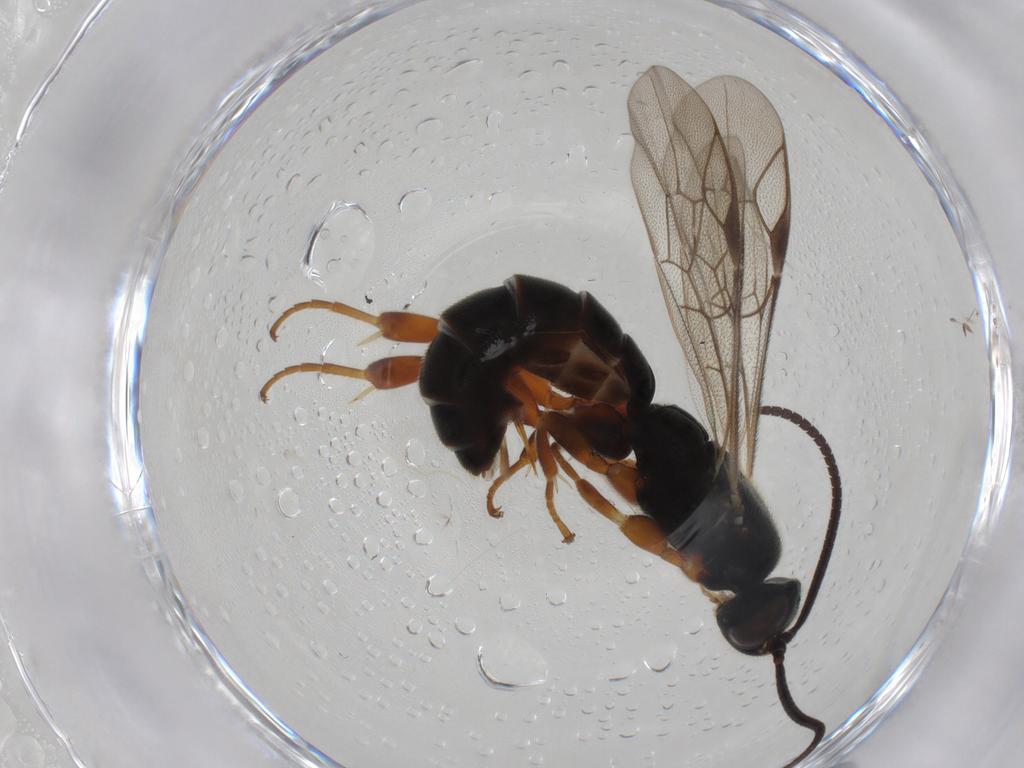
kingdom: Animalia
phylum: Arthropoda
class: Insecta
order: Hymenoptera
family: Ichneumonidae
